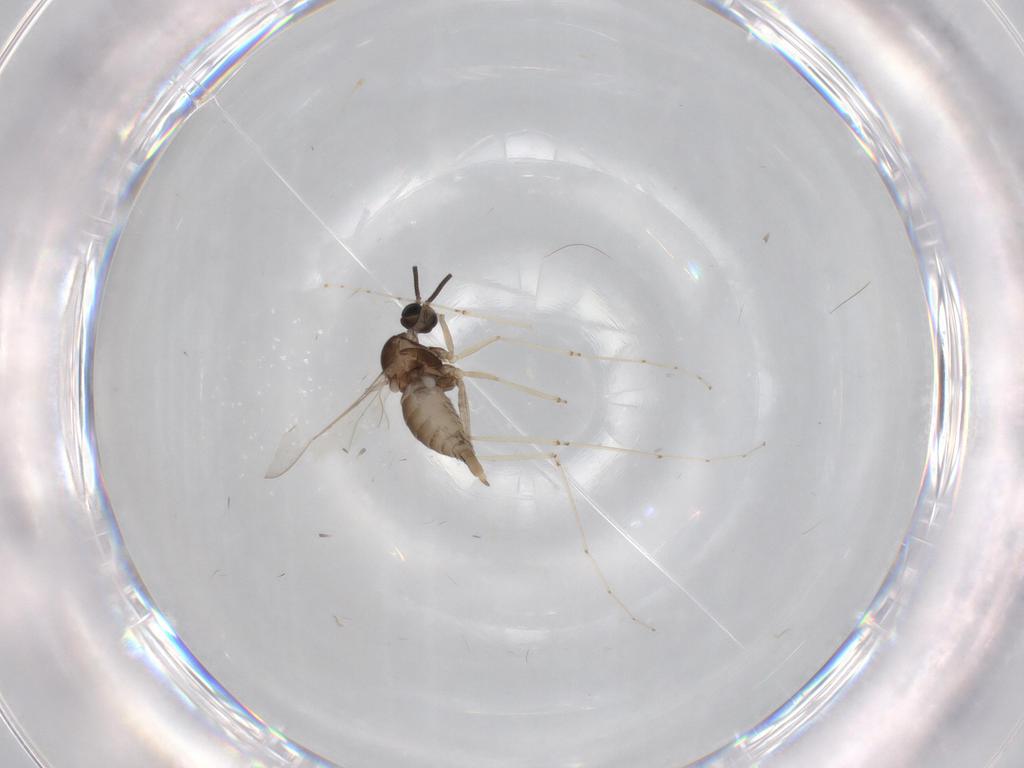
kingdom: Animalia
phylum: Arthropoda
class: Insecta
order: Diptera
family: Cecidomyiidae
